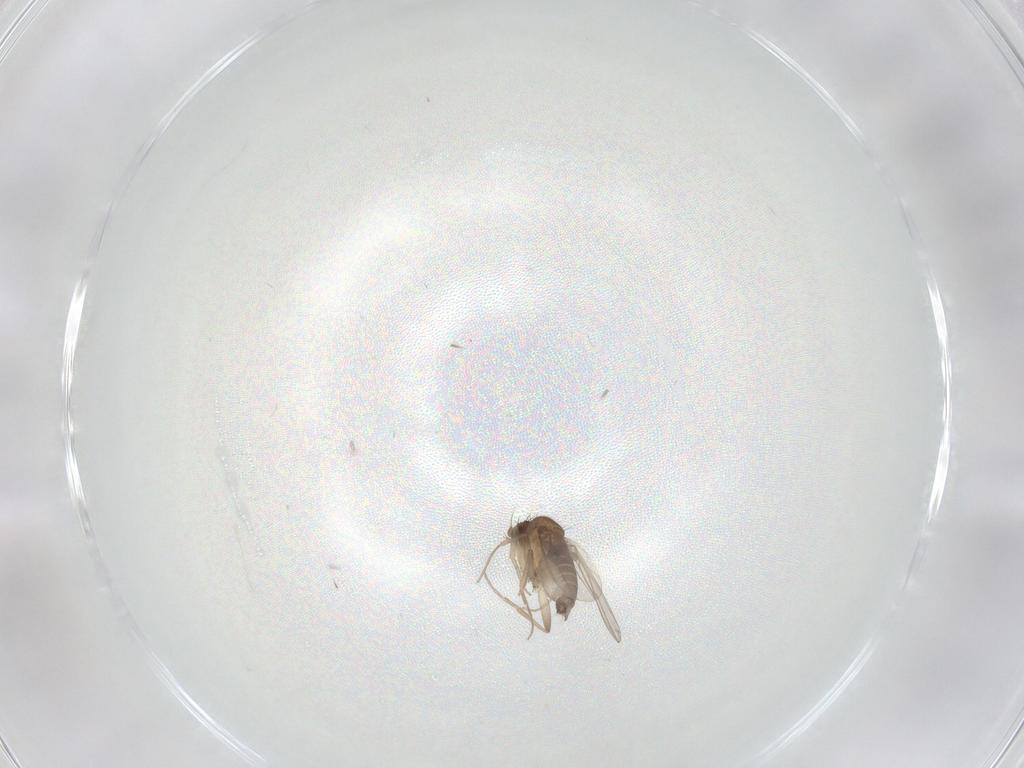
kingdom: Animalia
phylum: Arthropoda
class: Insecta
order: Diptera
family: Phoridae
